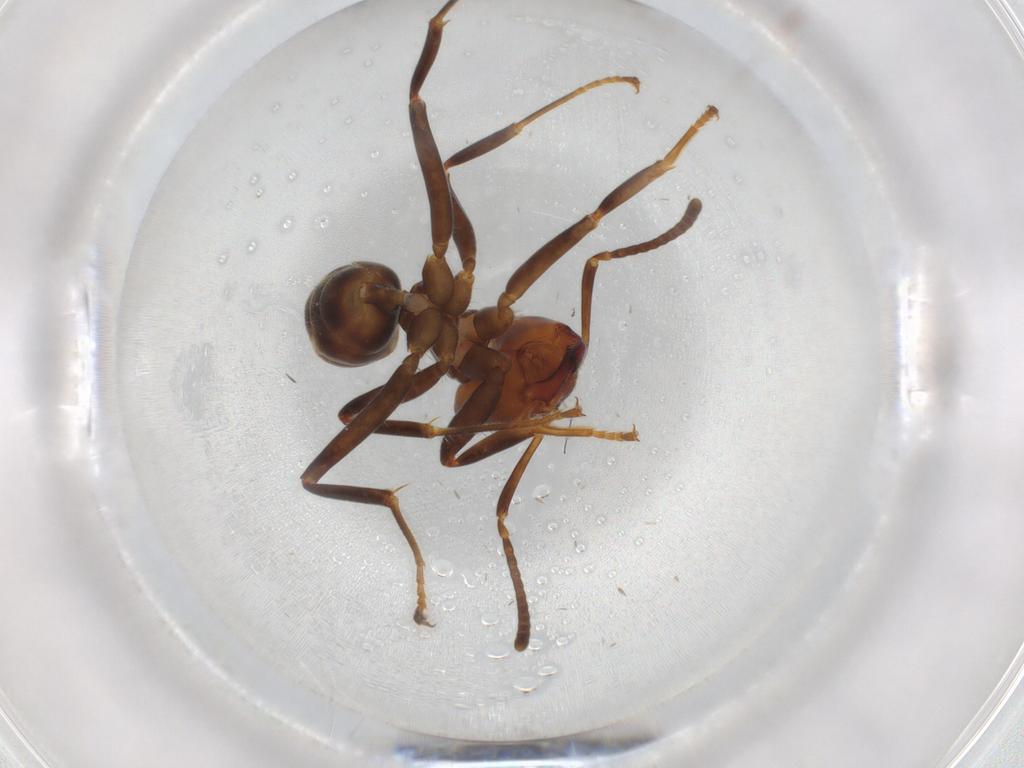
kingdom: Animalia
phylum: Arthropoda
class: Insecta
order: Hymenoptera
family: Formicidae
